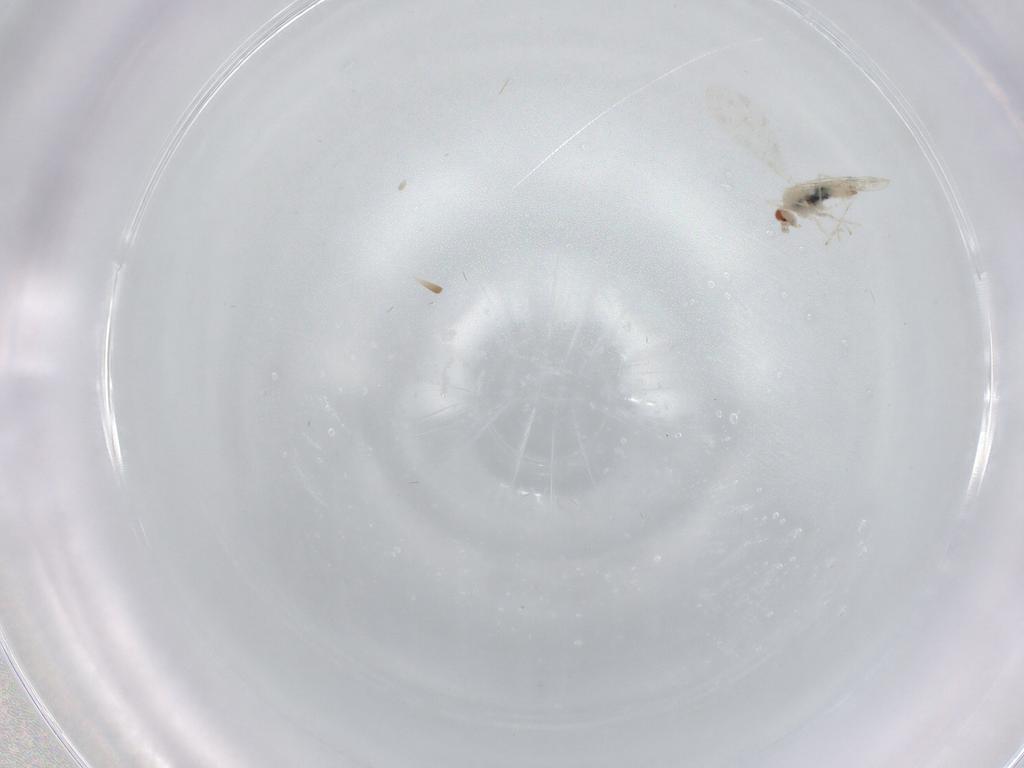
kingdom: Animalia
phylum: Arthropoda
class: Insecta
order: Diptera
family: Cecidomyiidae
